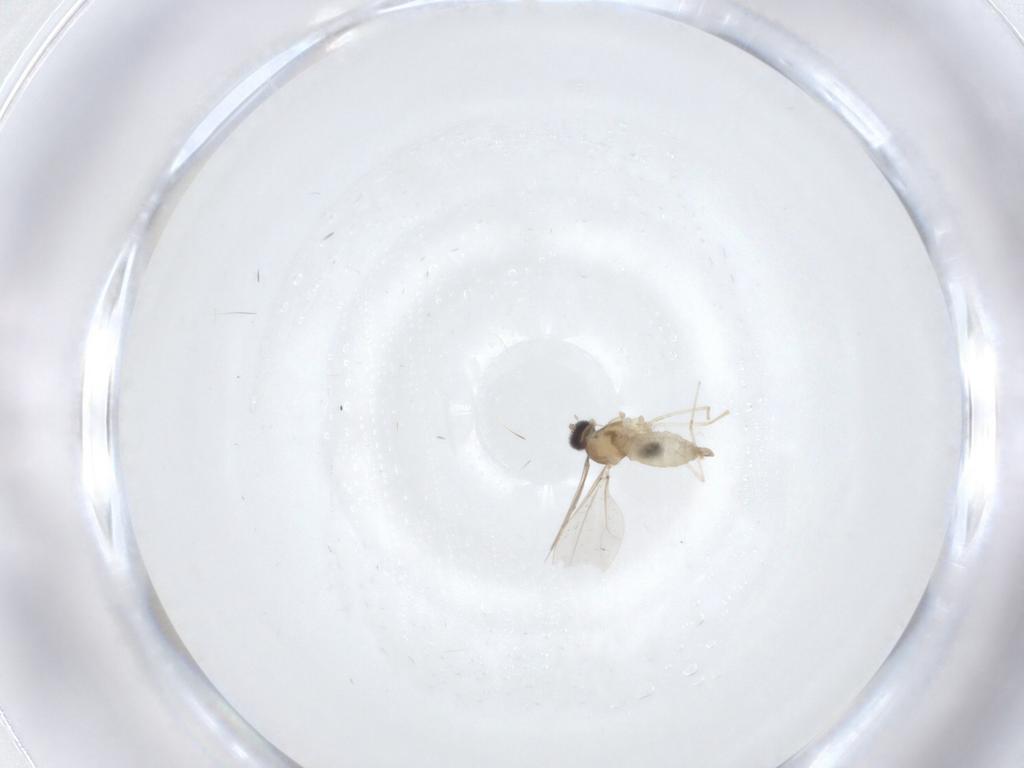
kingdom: Animalia
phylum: Arthropoda
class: Insecta
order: Diptera
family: Cecidomyiidae
